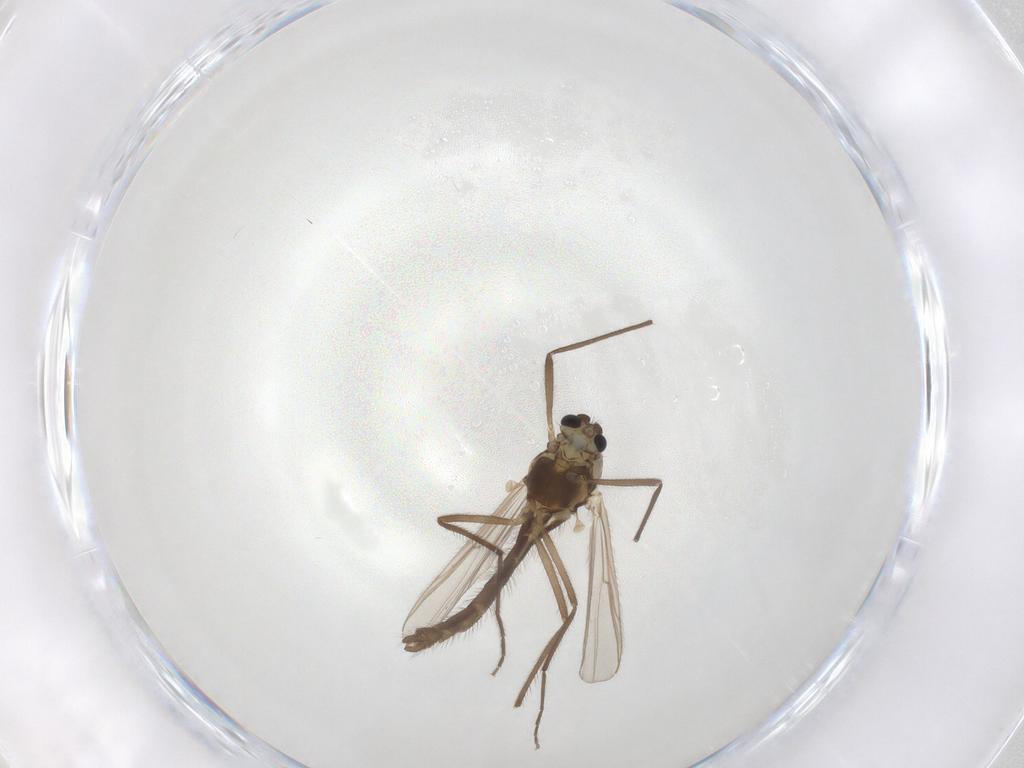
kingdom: Animalia
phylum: Arthropoda
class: Insecta
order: Diptera
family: Chironomidae
